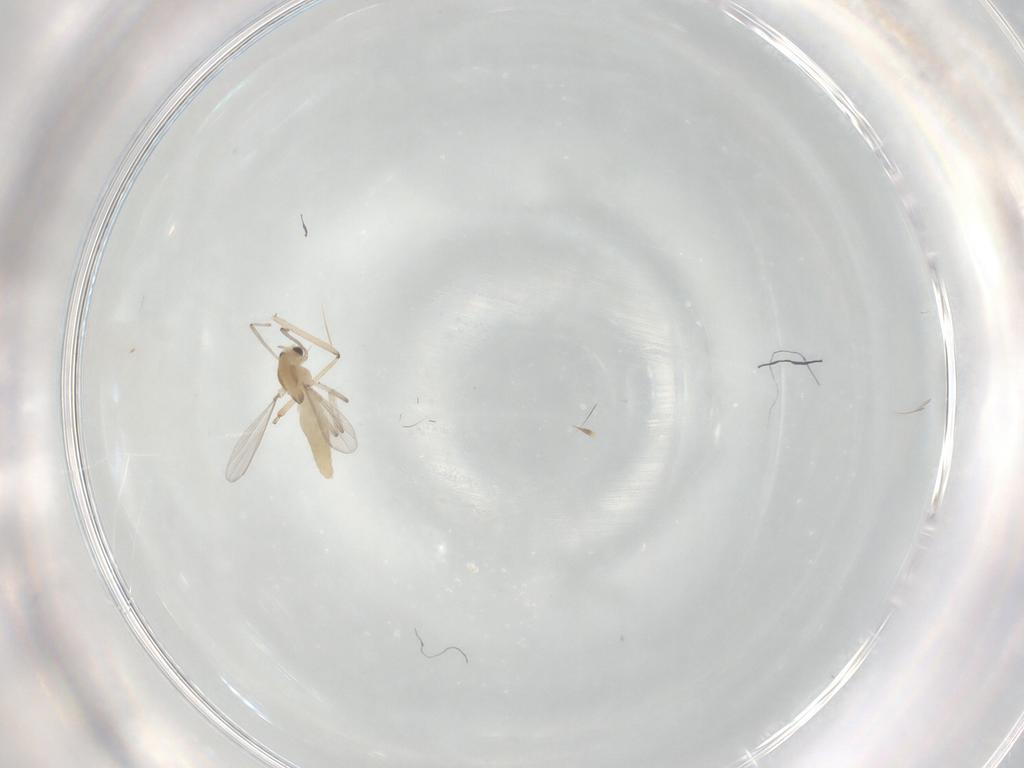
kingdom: Animalia
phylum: Arthropoda
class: Insecta
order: Diptera
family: Chironomidae
